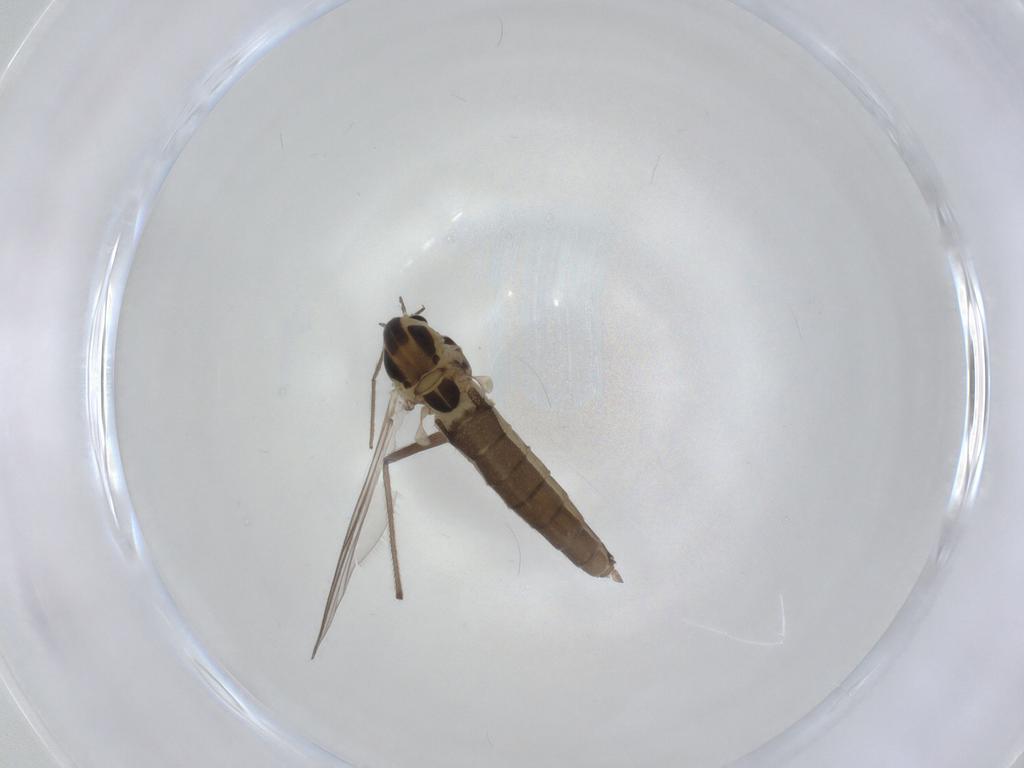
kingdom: Animalia
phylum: Arthropoda
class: Insecta
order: Diptera
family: Chironomidae
